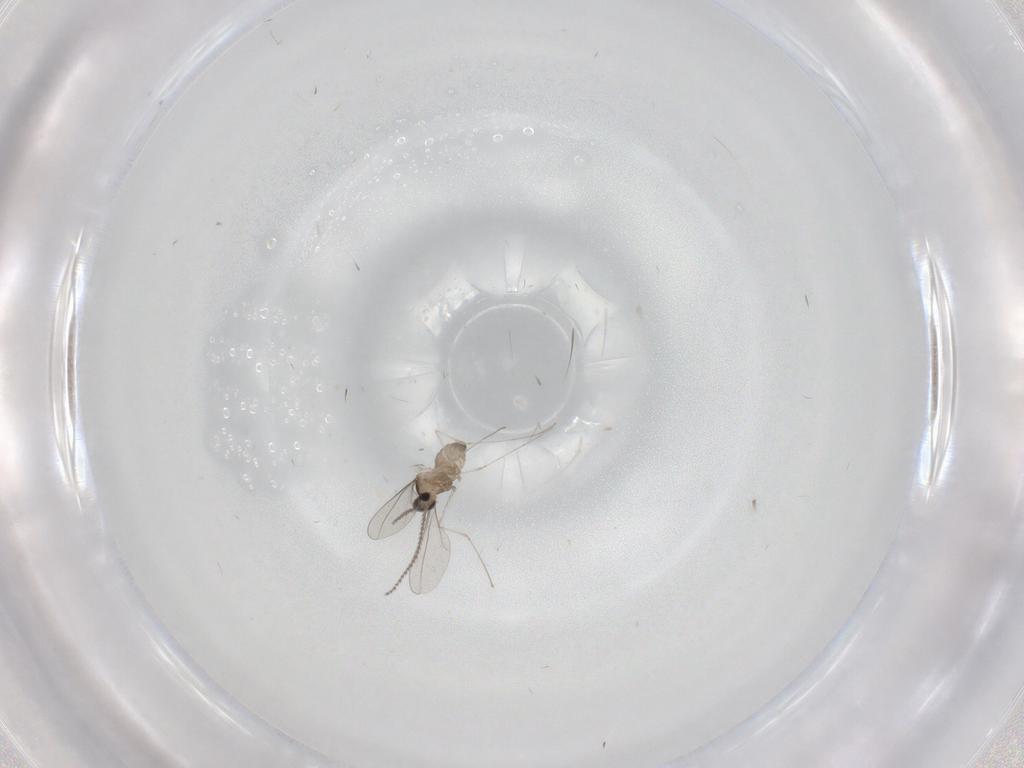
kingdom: Animalia
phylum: Arthropoda
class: Insecta
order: Diptera
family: Cecidomyiidae
